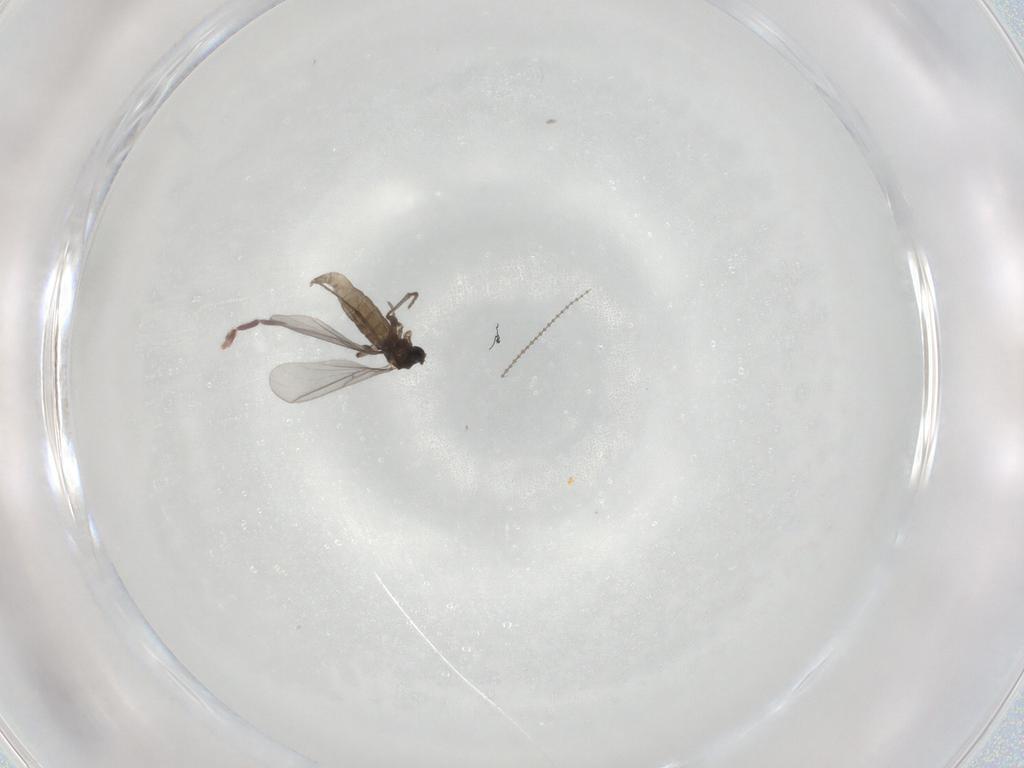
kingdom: Animalia
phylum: Arthropoda
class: Insecta
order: Diptera
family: Sciaridae
